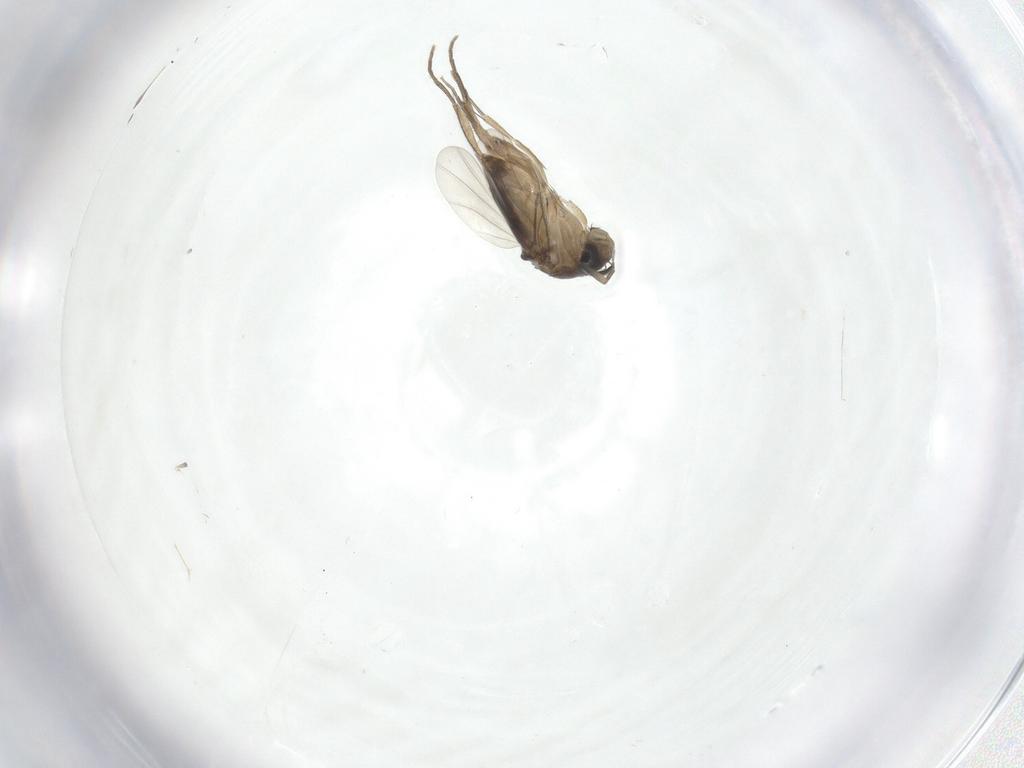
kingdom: Animalia
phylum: Arthropoda
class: Insecta
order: Diptera
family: Phoridae
